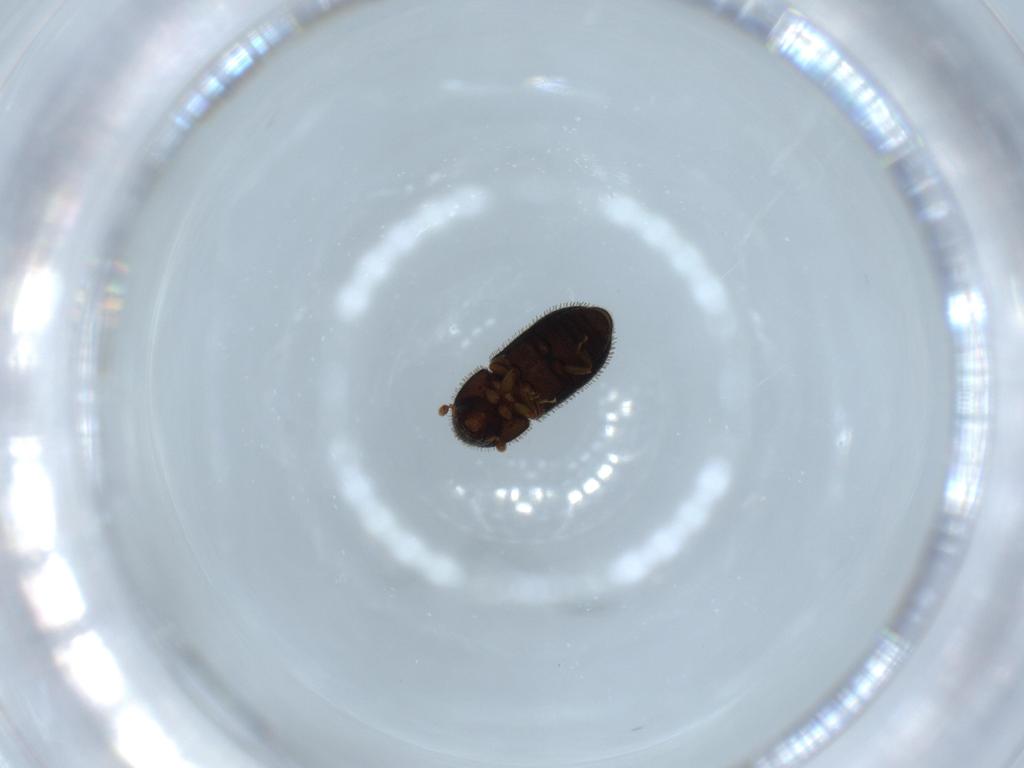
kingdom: Animalia
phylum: Arthropoda
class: Insecta
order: Coleoptera
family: Curculionidae
